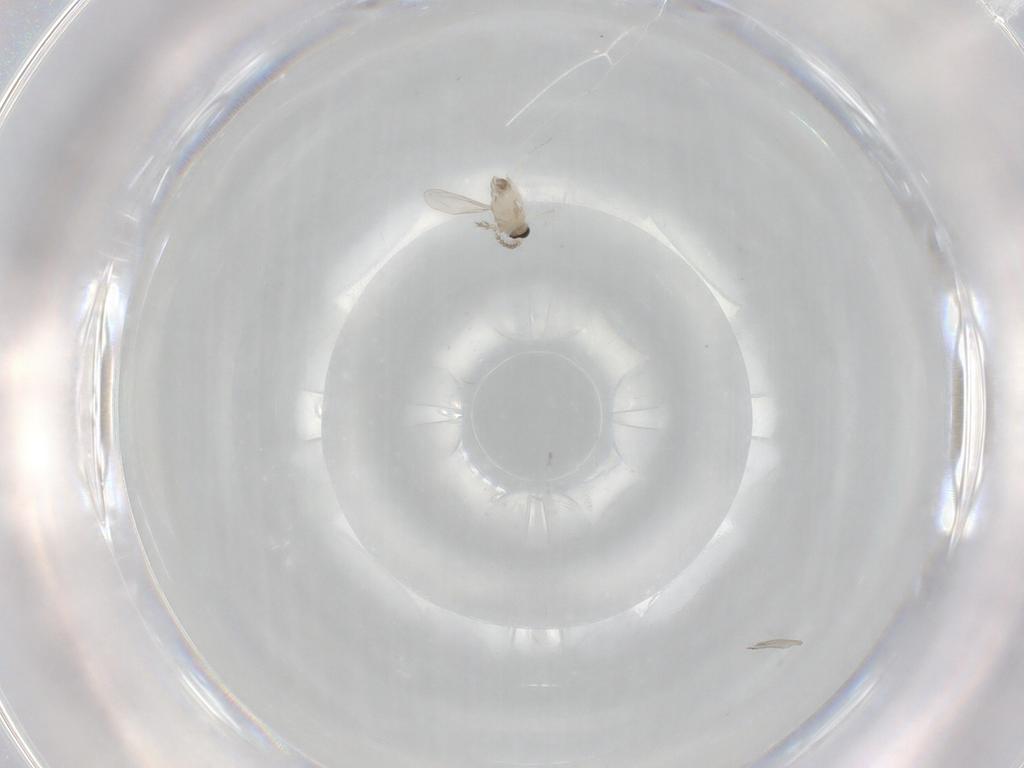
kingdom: Animalia
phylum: Arthropoda
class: Insecta
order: Diptera
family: Cecidomyiidae
